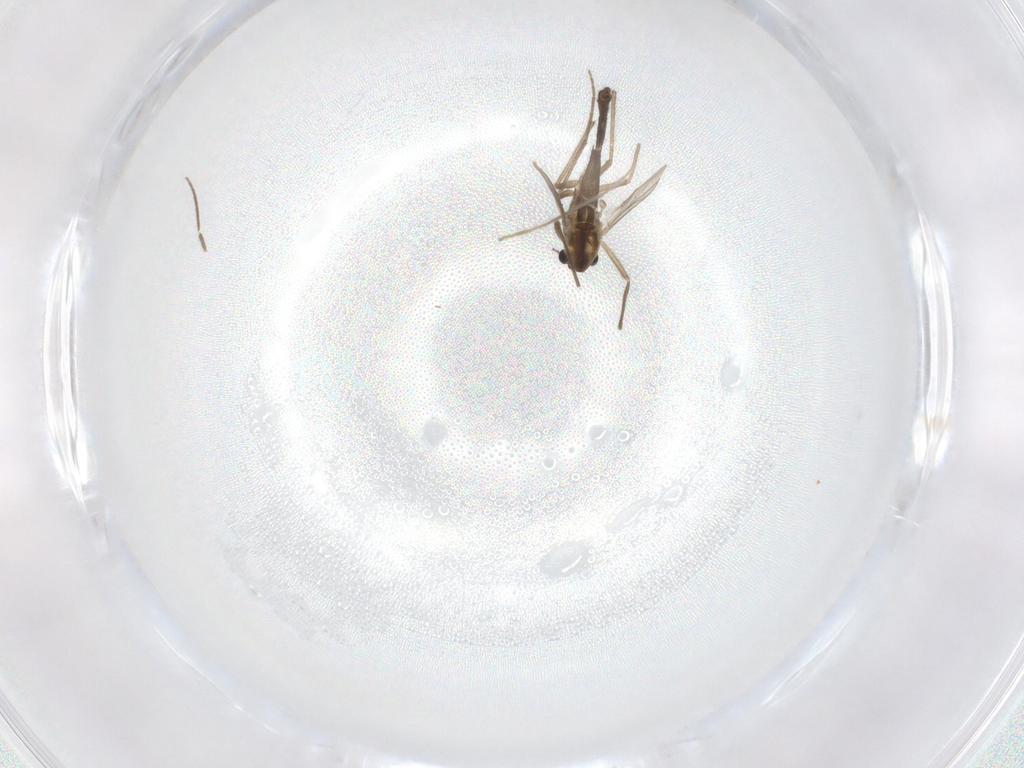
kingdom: Animalia
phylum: Arthropoda
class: Insecta
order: Diptera
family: Chironomidae
